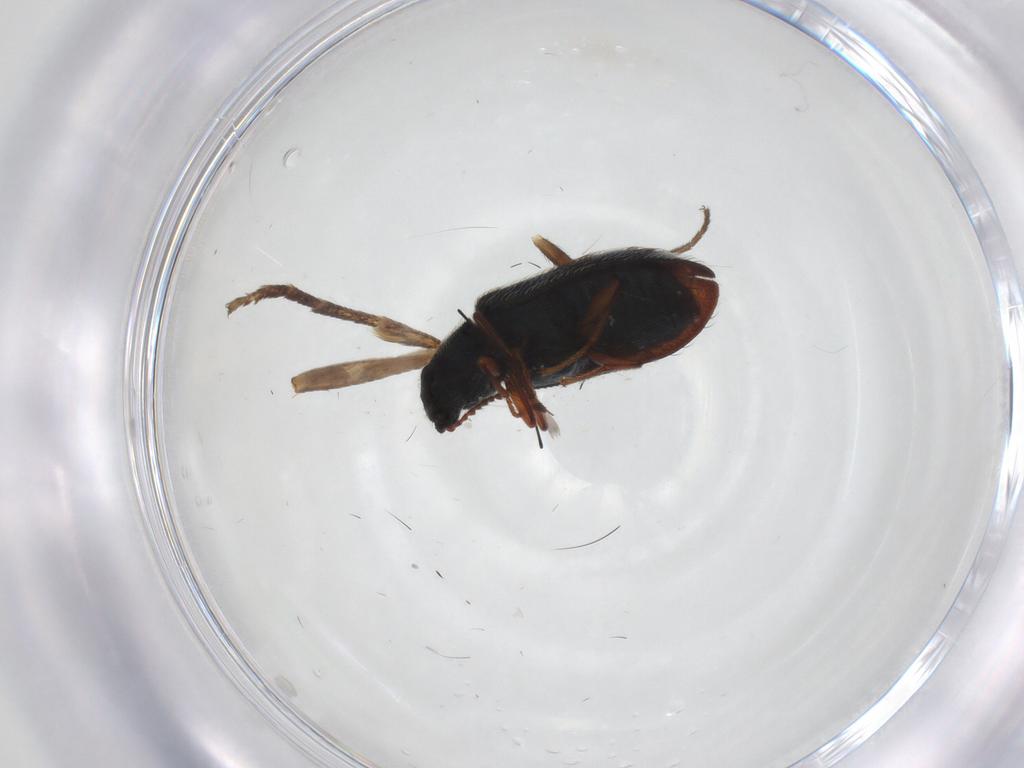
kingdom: Animalia
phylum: Arthropoda
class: Insecta
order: Coleoptera
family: Melyridae
